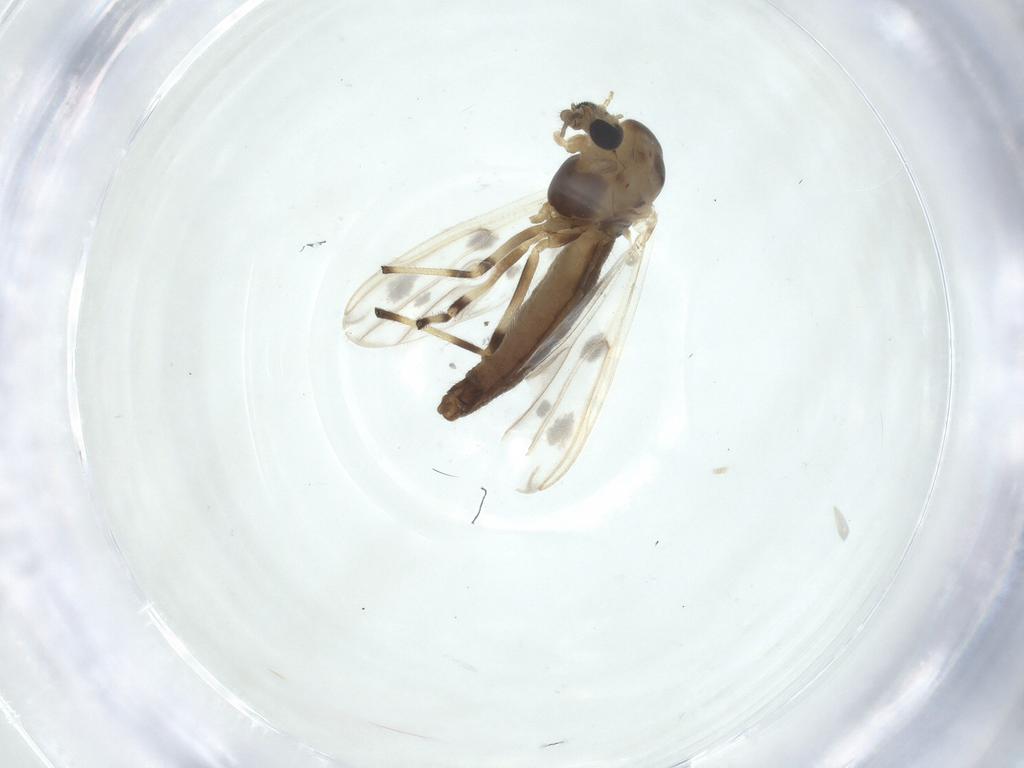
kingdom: Animalia
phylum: Arthropoda
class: Insecta
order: Diptera
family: Chironomidae
